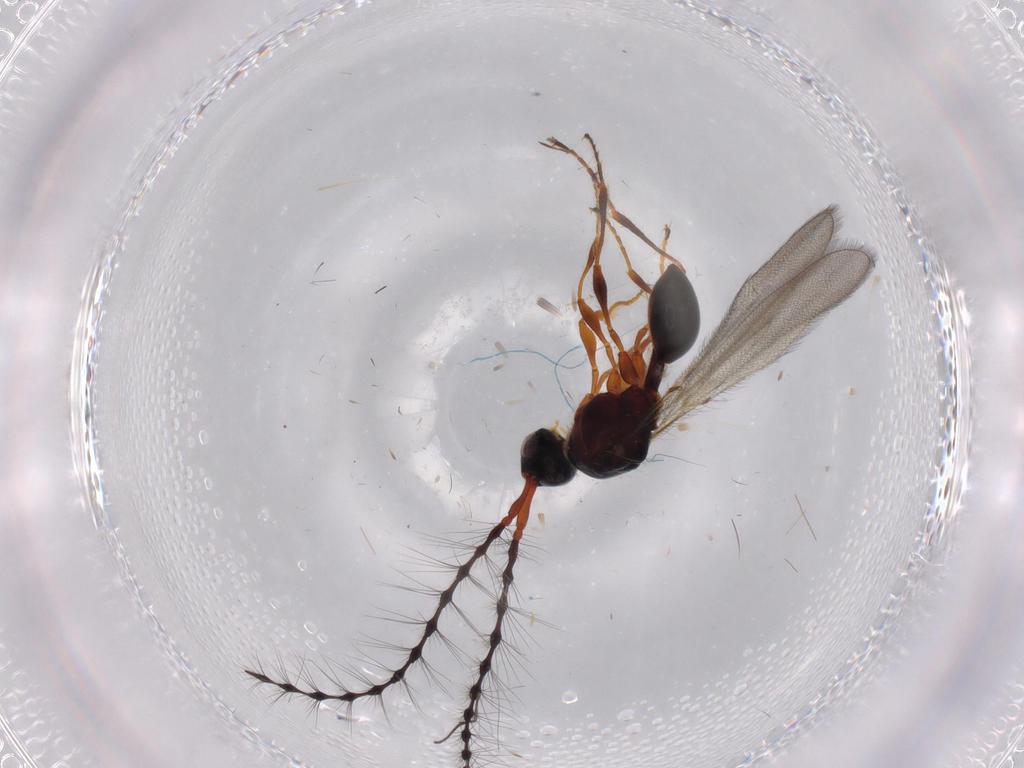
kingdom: Animalia
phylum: Arthropoda
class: Insecta
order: Hymenoptera
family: Diapriidae
